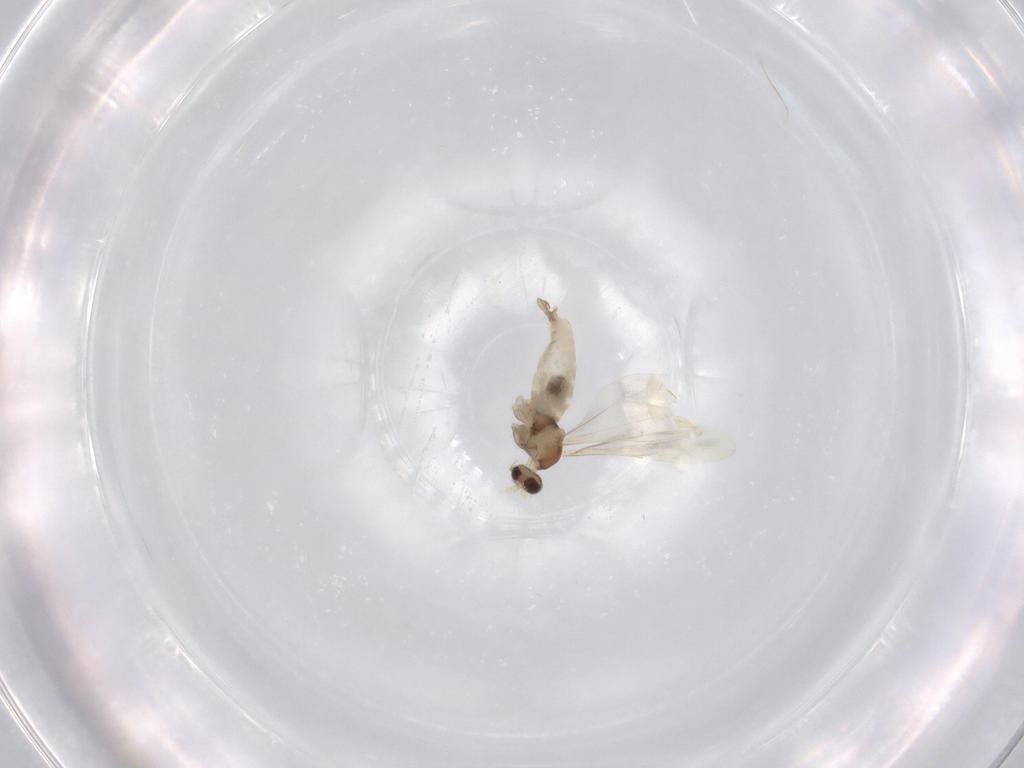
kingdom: Animalia
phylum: Arthropoda
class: Insecta
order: Diptera
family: Cecidomyiidae
